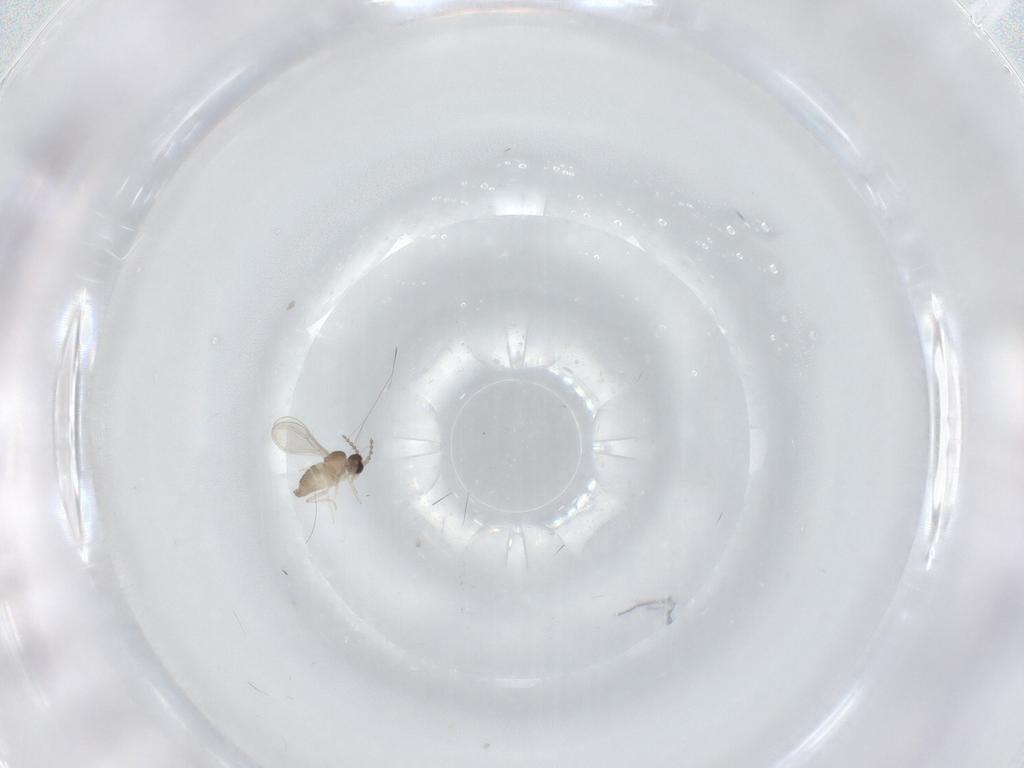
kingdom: Animalia
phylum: Arthropoda
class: Insecta
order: Diptera
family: Cecidomyiidae
